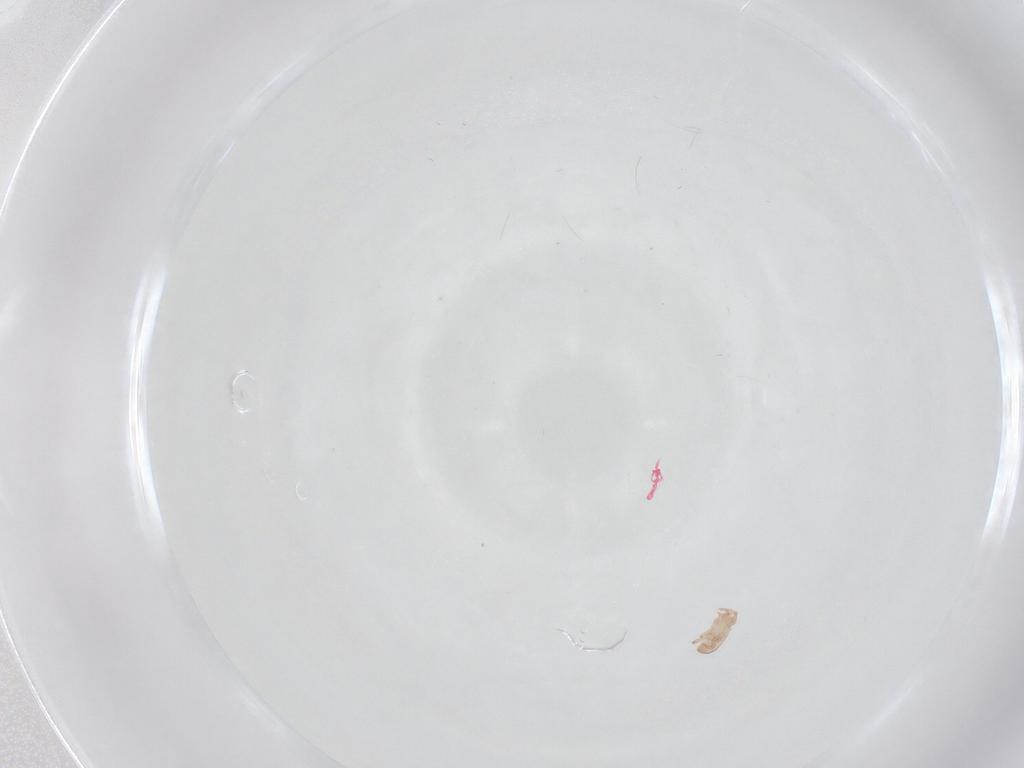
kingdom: Animalia
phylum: Arthropoda
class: Arachnida
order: Mesostigmata
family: Digamasellidae
